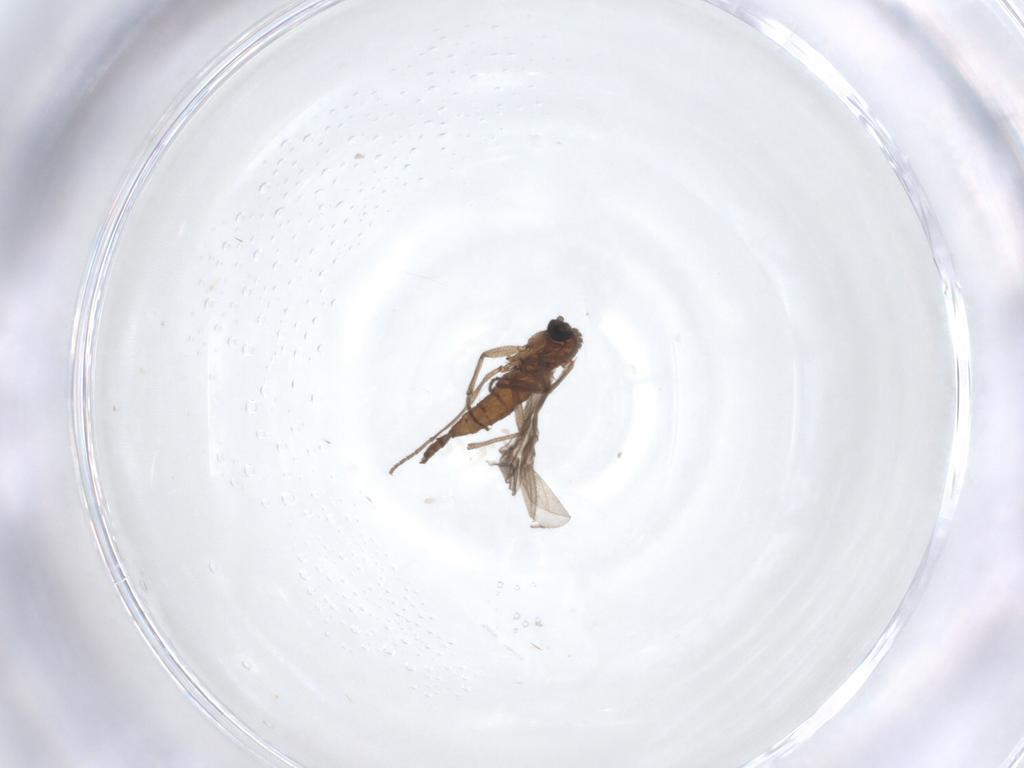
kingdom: Animalia
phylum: Arthropoda
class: Insecta
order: Diptera
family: Sciaridae
